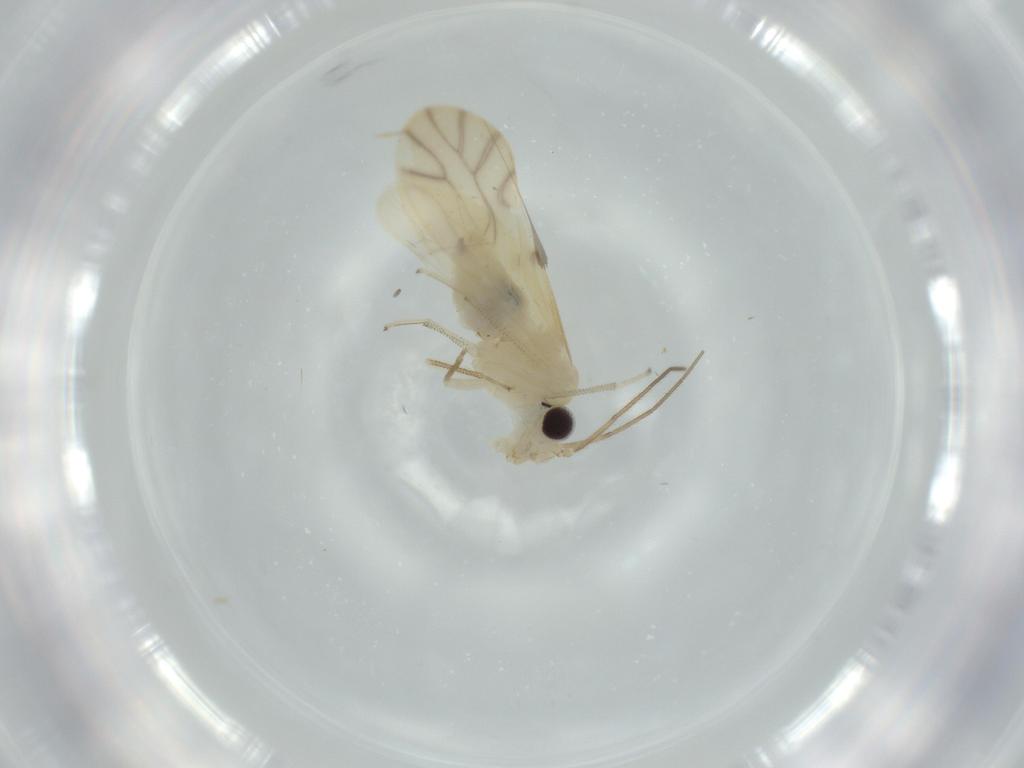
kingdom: Animalia
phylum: Arthropoda
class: Insecta
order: Psocodea
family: Caeciliusidae
